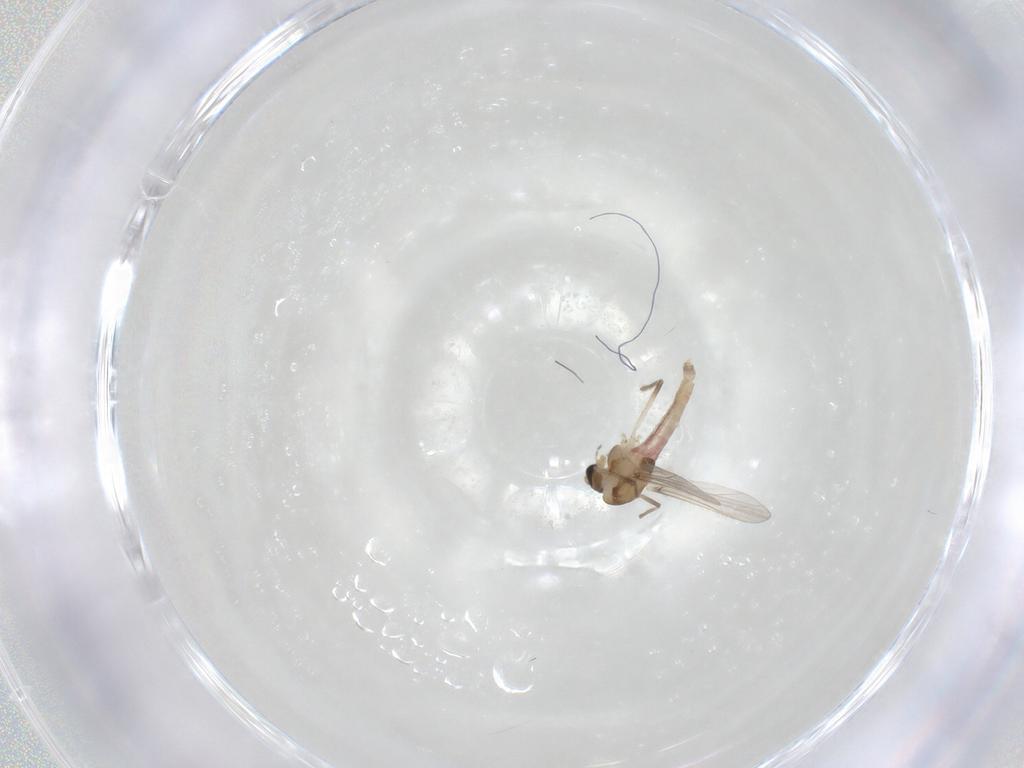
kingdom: Animalia
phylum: Arthropoda
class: Insecta
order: Diptera
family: Chironomidae
